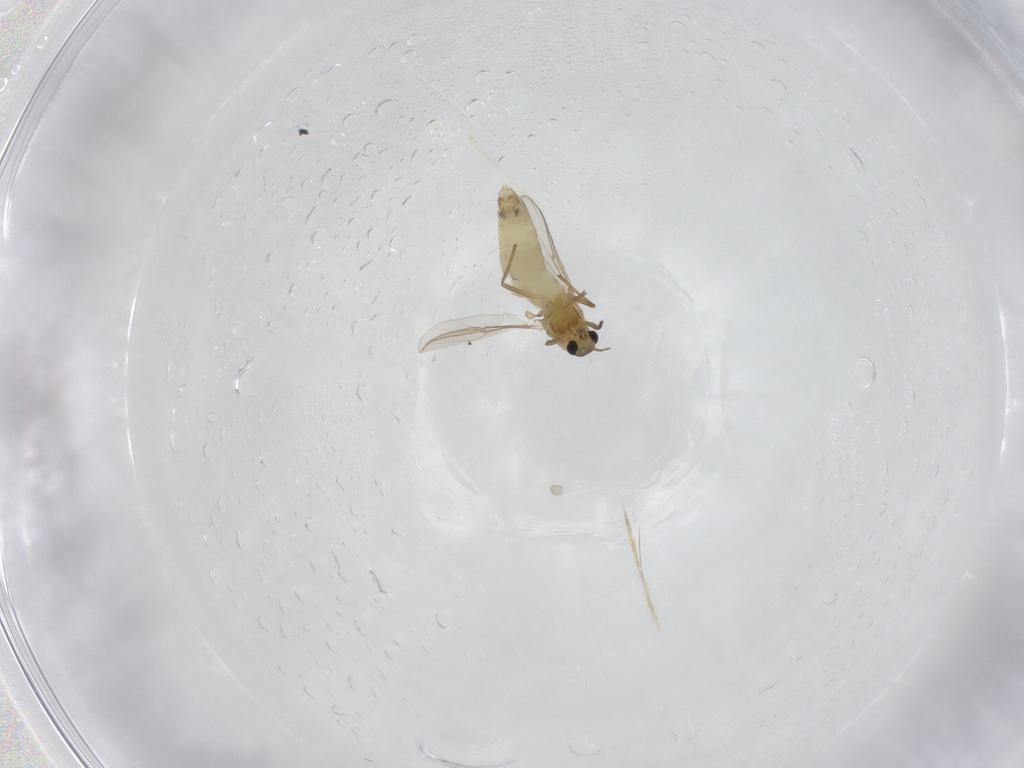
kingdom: Animalia
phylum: Arthropoda
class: Insecta
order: Diptera
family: Chironomidae
